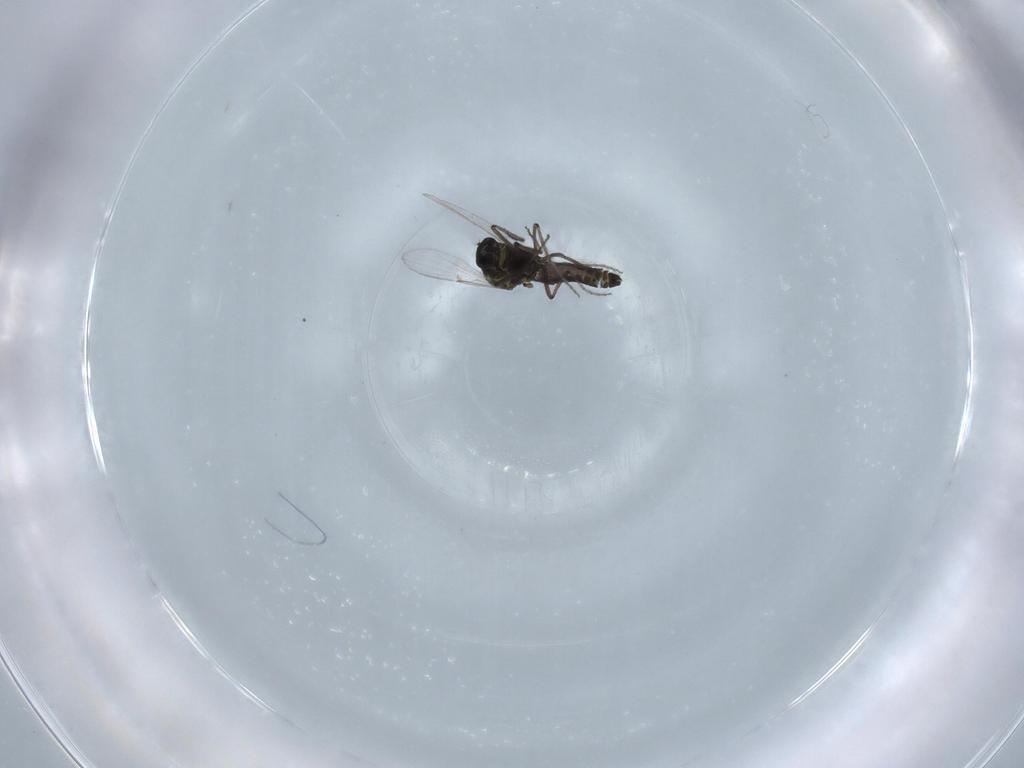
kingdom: Animalia
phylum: Arthropoda
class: Insecta
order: Diptera
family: Ceratopogonidae
